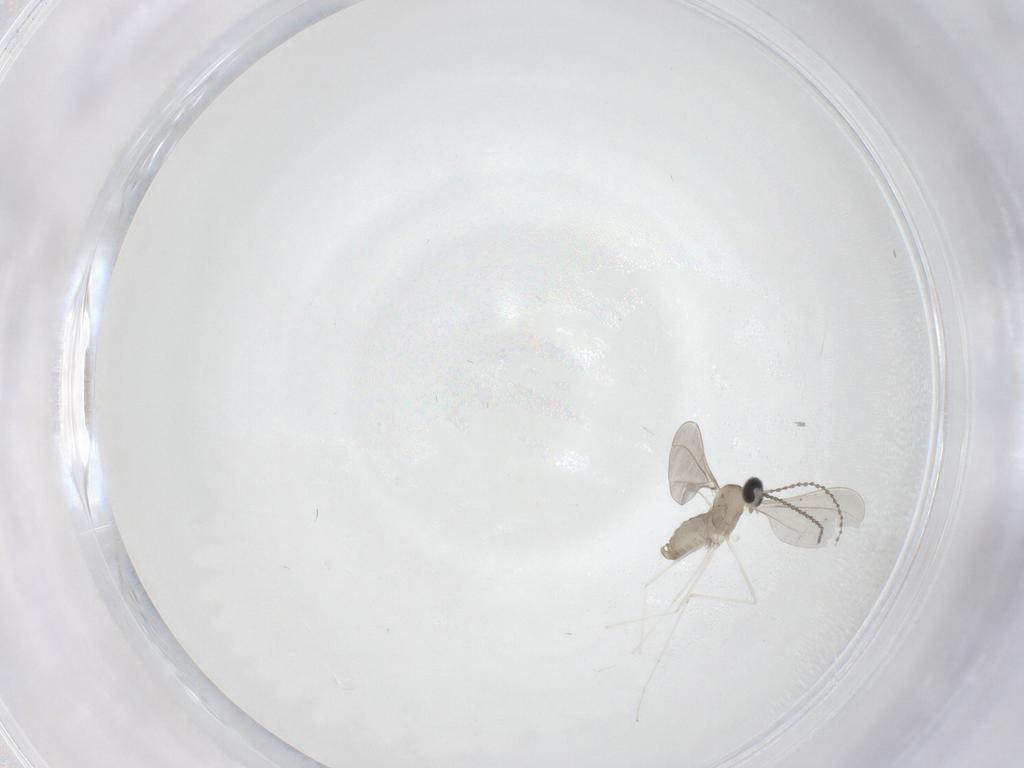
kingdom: Animalia
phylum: Arthropoda
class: Insecta
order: Diptera
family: Cecidomyiidae
